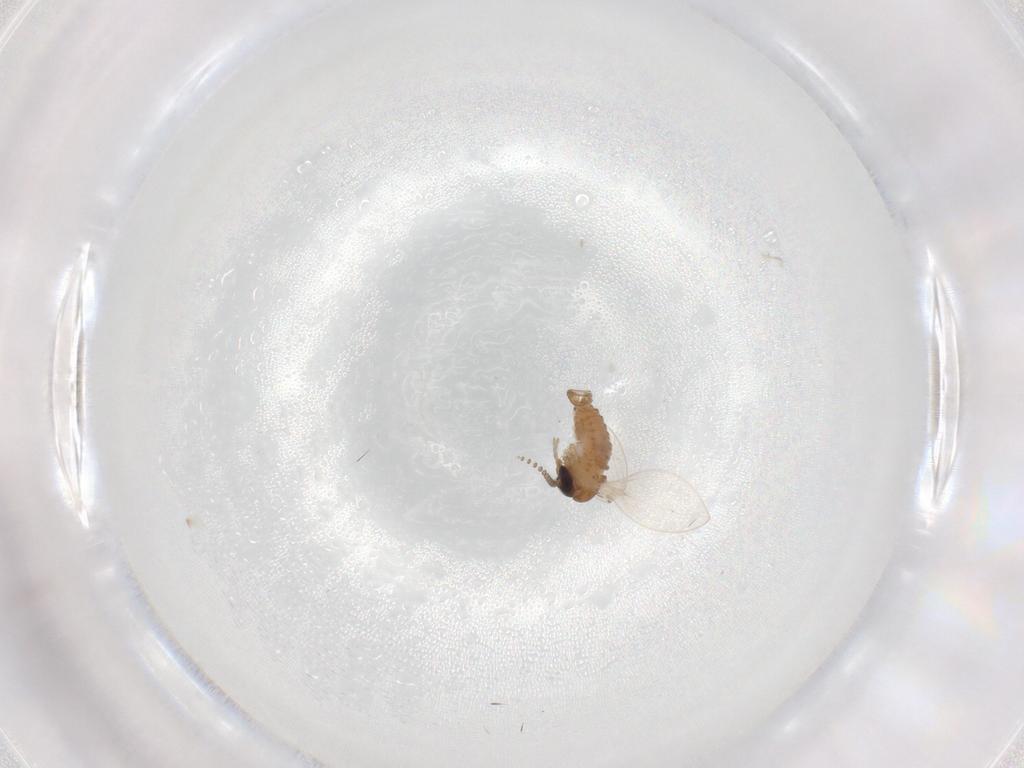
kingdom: Animalia
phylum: Arthropoda
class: Insecta
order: Diptera
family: Psychodidae
